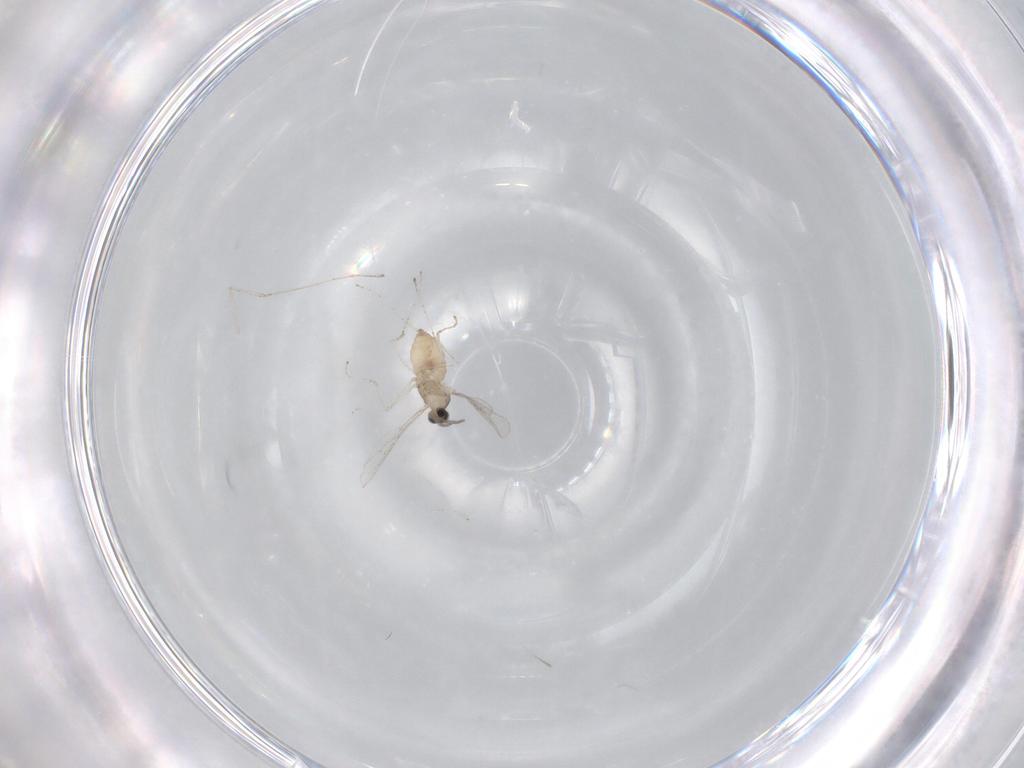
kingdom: Animalia
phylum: Arthropoda
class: Insecta
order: Diptera
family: Cecidomyiidae
